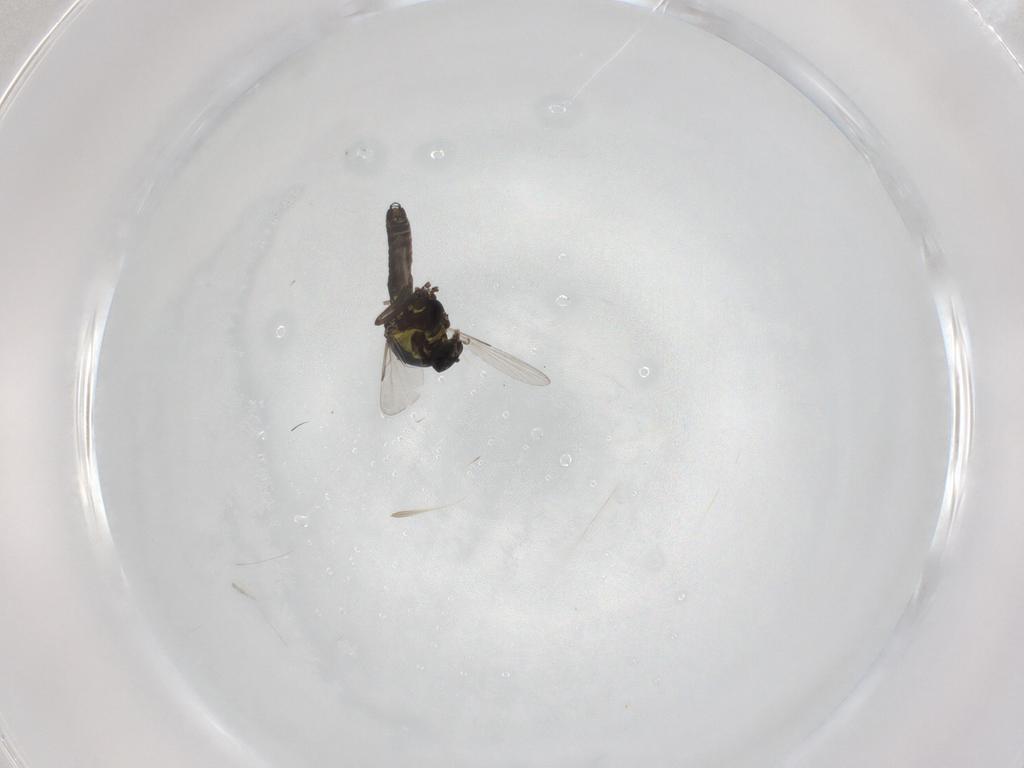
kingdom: Animalia
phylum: Arthropoda
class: Insecta
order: Diptera
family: Ceratopogonidae
